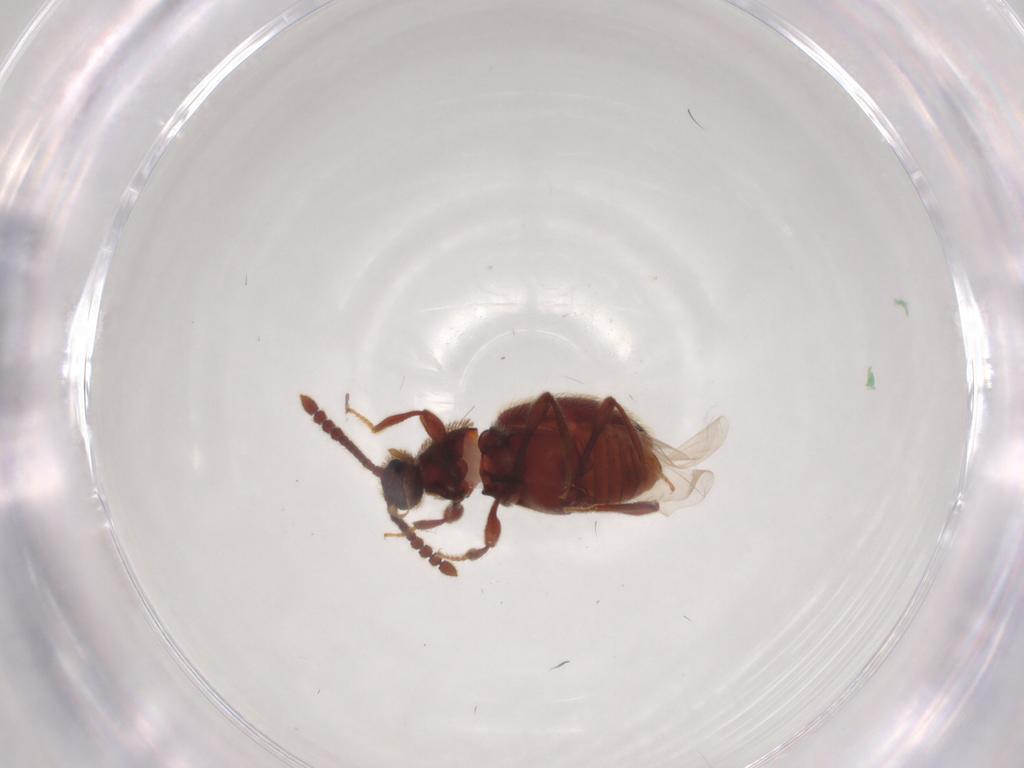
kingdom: Animalia
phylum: Arthropoda
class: Insecta
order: Coleoptera
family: Staphylinidae
